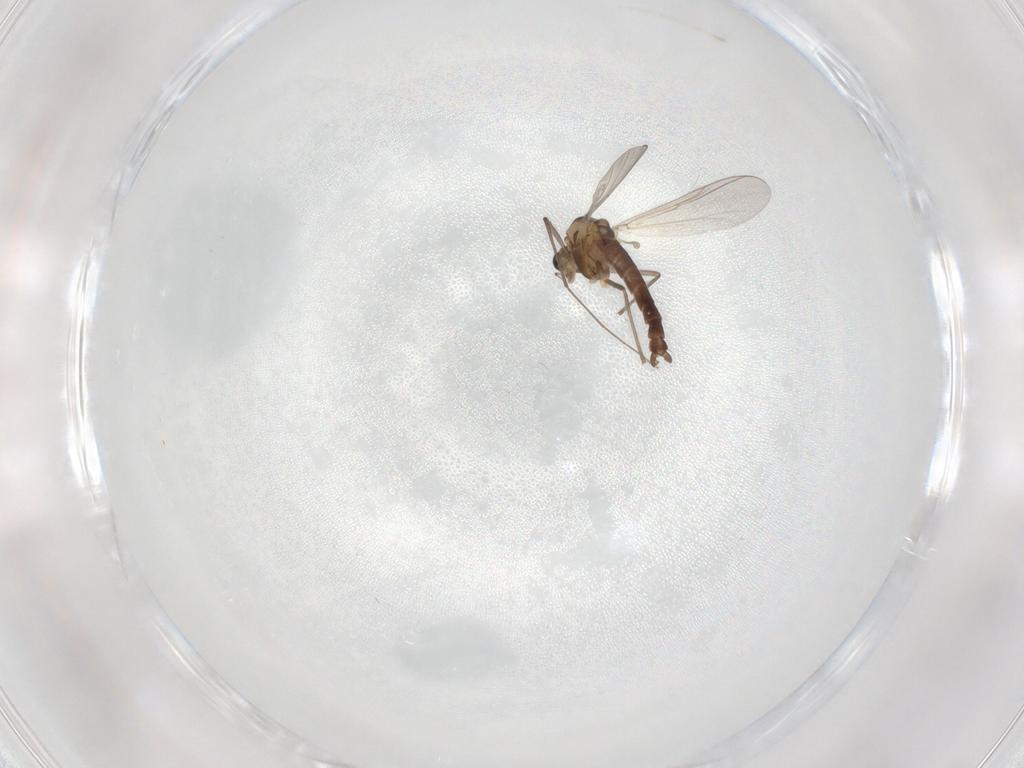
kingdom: Animalia
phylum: Arthropoda
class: Insecta
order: Diptera
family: Chironomidae
